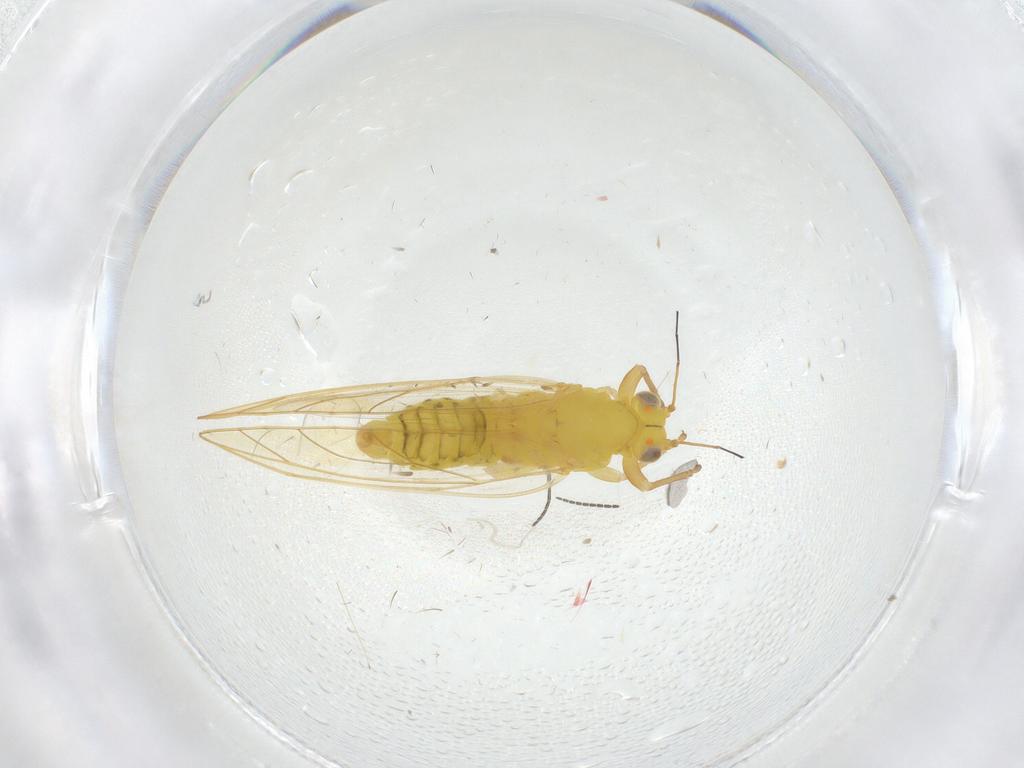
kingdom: Animalia
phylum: Arthropoda
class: Insecta
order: Diptera
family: Sciaridae
